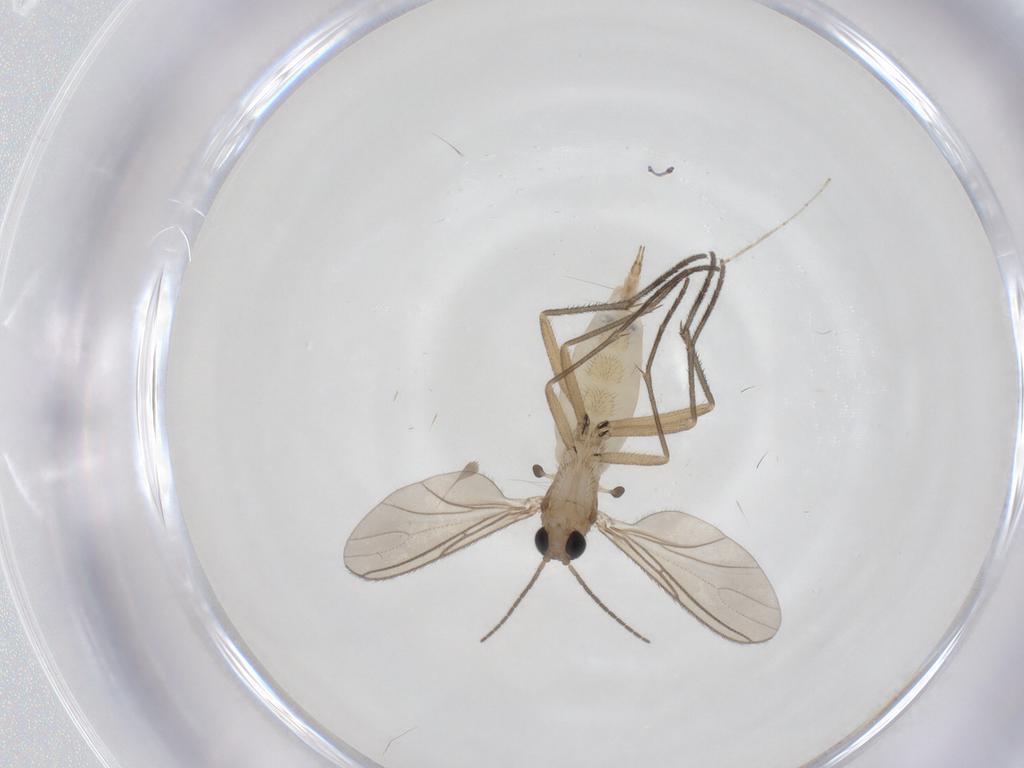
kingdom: Animalia
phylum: Arthropoda
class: Insecta
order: Diptera
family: Sciaridae
